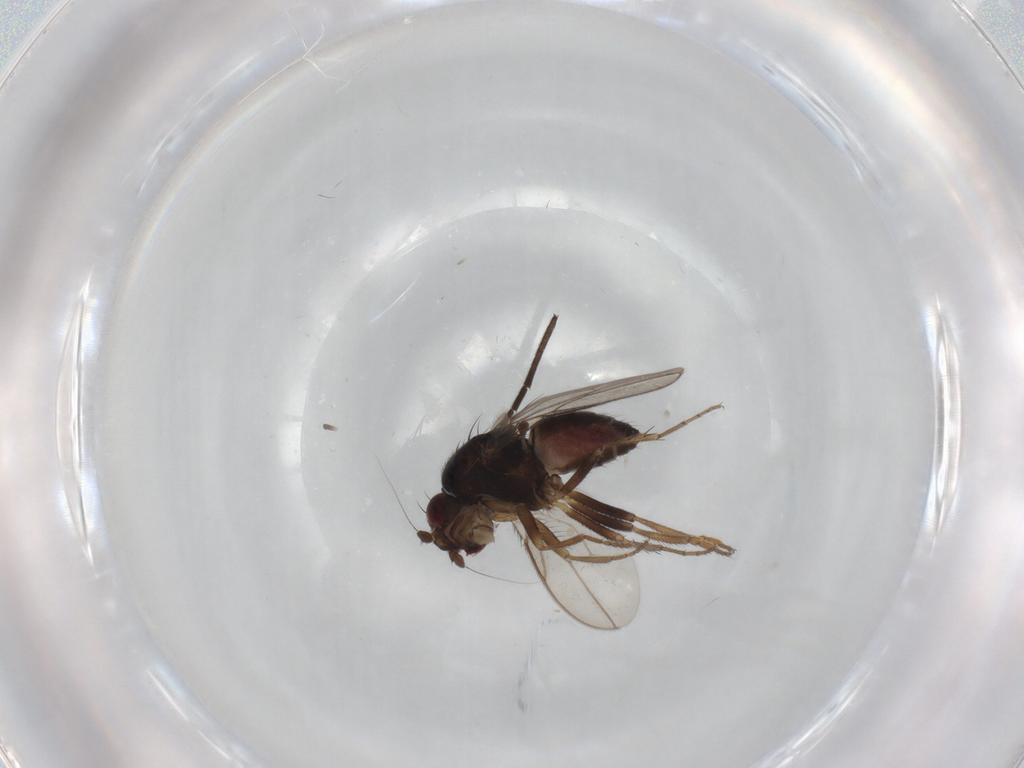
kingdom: Animalia
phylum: Arthropoda
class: Insecta
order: Diptera
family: Sphaeroceridae
